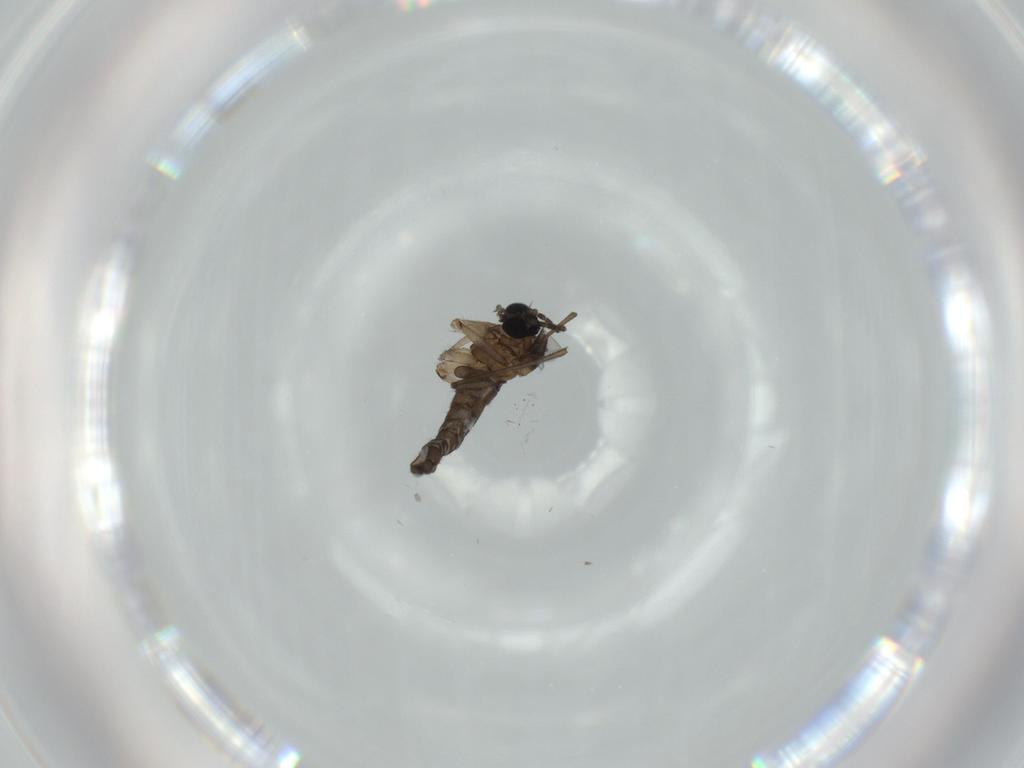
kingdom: Animalia
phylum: Arthropoda
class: Insecta
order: Diptera
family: Sciaridae
